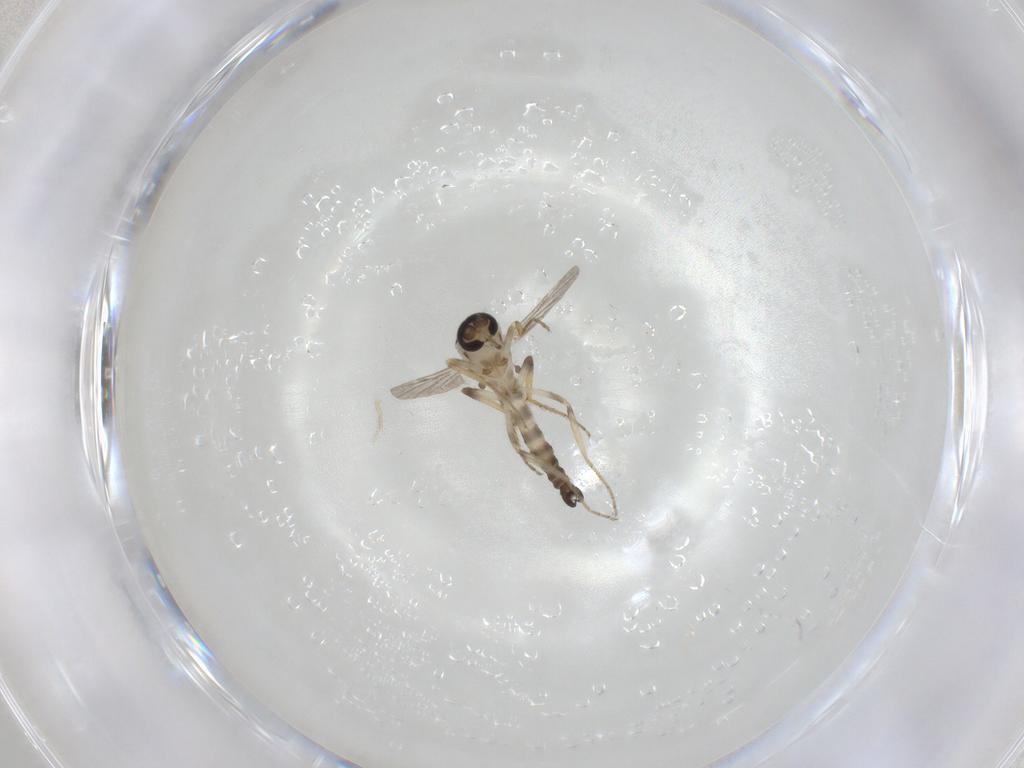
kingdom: Animalia
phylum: Arthropoda
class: Insecta
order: Diptera
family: Ceratopogonidae
